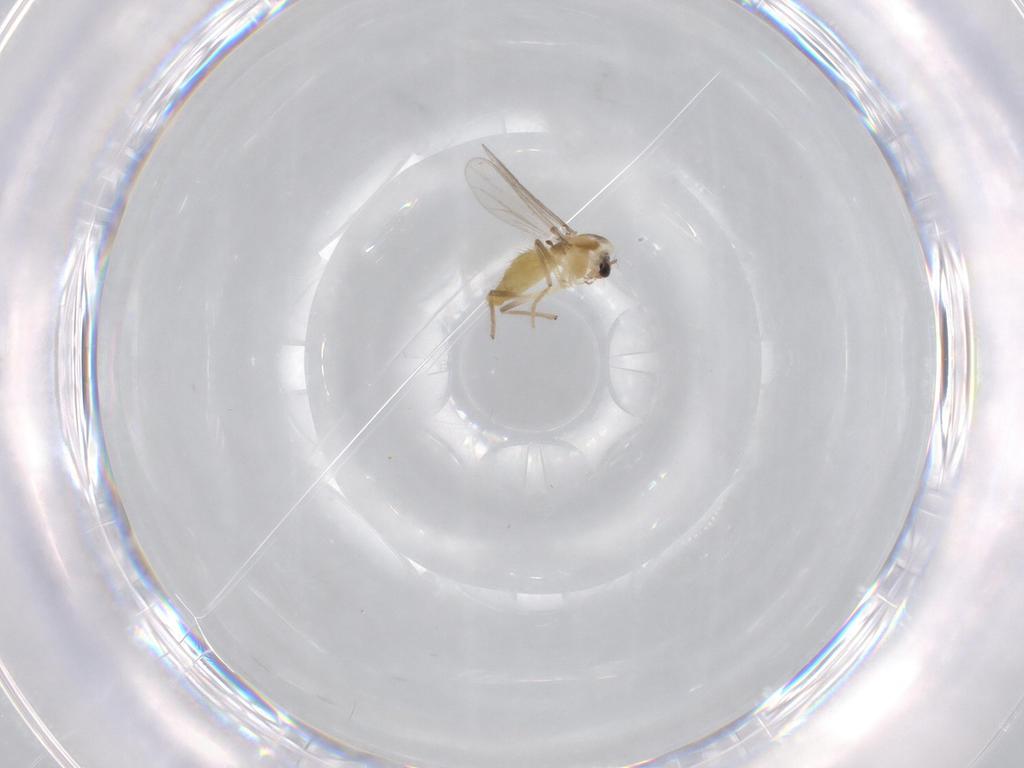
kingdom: Animalia
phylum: Arthropoda
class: Insecta
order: Diptera
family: Chironomidae
